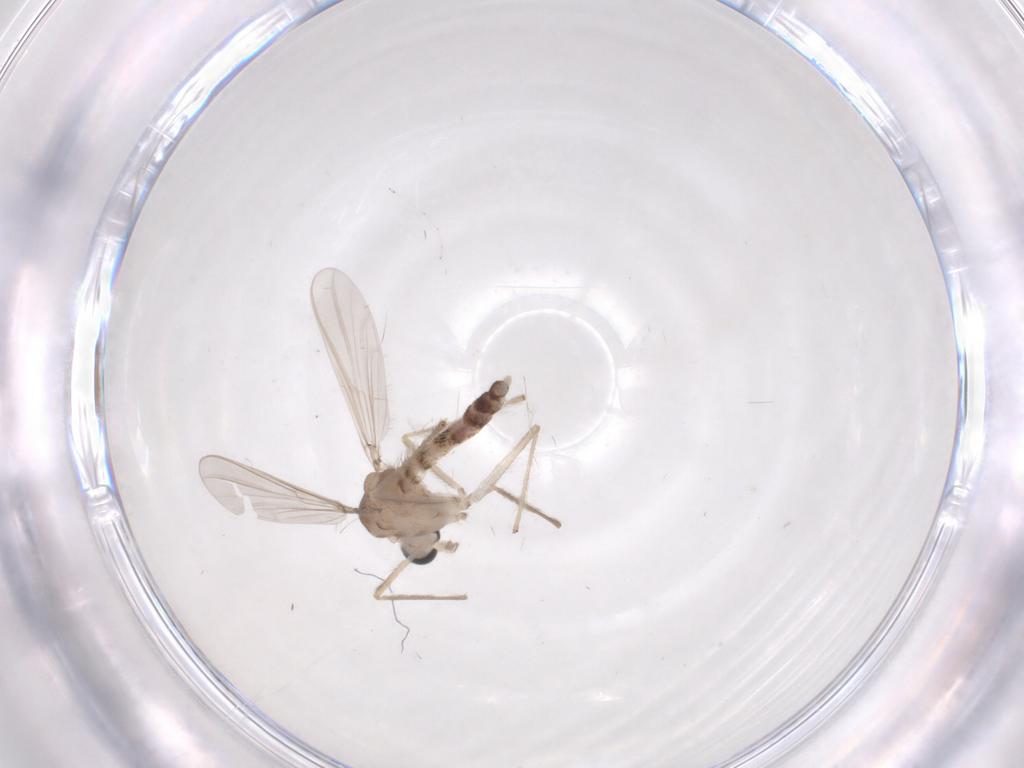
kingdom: Animalia
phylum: Arthropoda
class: Insecta
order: Diptera
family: Chironomidae
